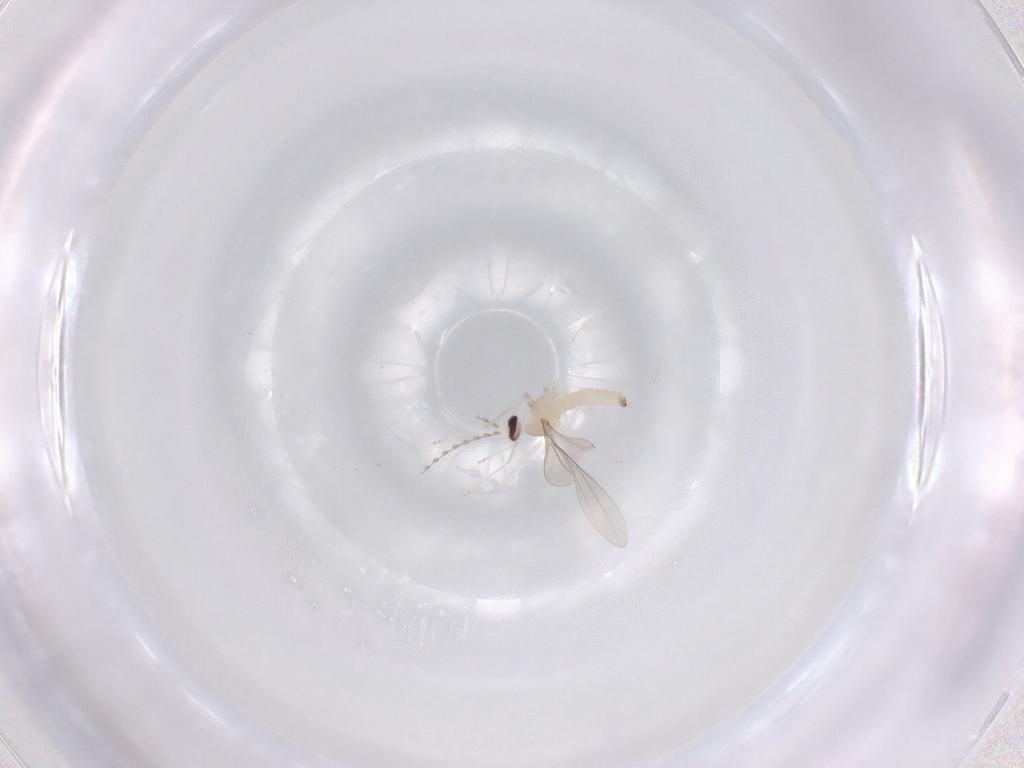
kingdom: Animalia
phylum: Arthropoda
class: Insecta
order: Diptera
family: Cecidomyiidae
